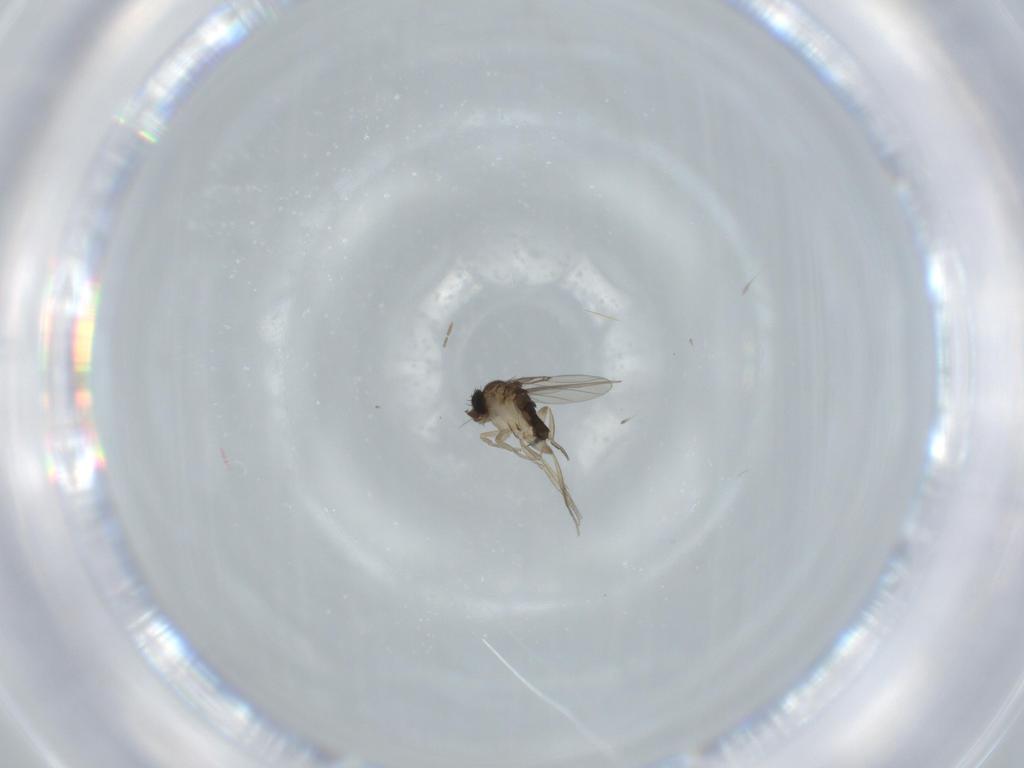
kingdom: Animalia
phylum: Arthropoda
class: Insecta
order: Diptera
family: Phoridae
